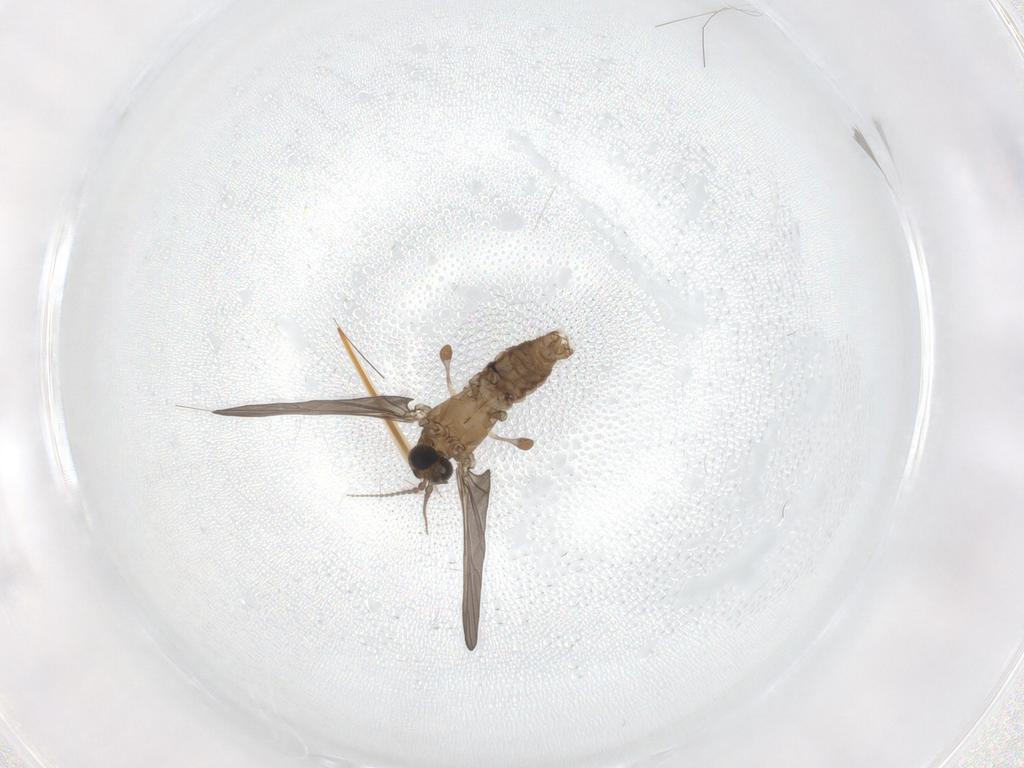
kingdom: Animalia
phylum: Arthropoda
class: Insecta
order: Diptera
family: Limoniidae
